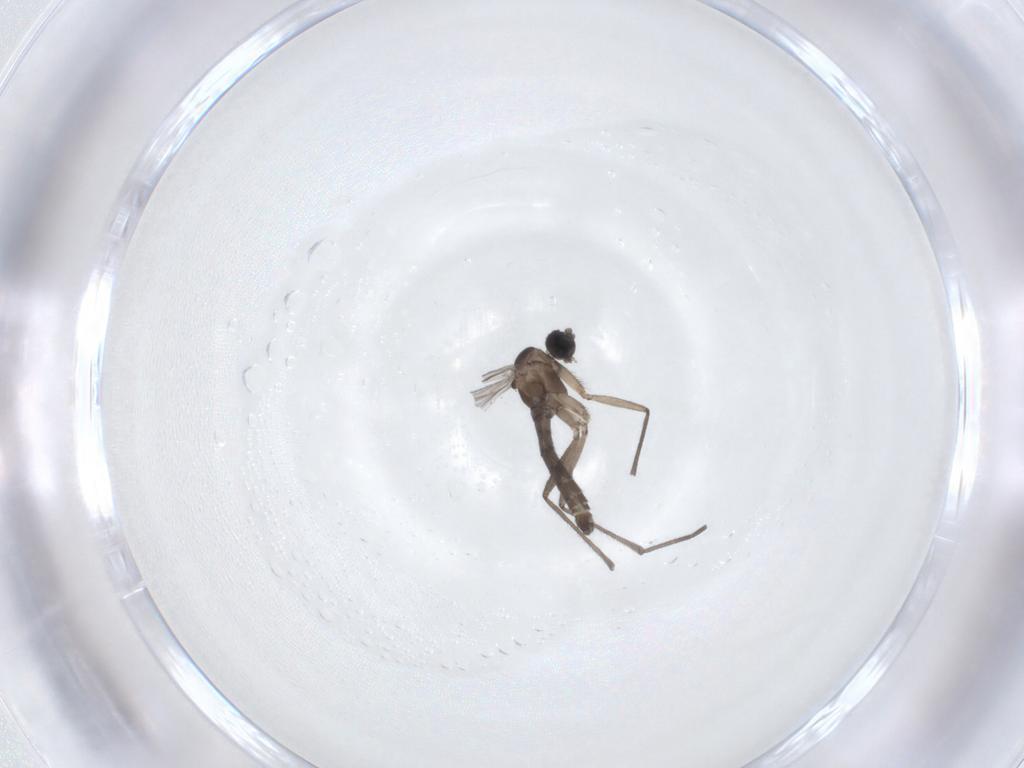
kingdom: Animalia
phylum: Arthropoda
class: Insecta
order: Diptera
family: Sciaridae
